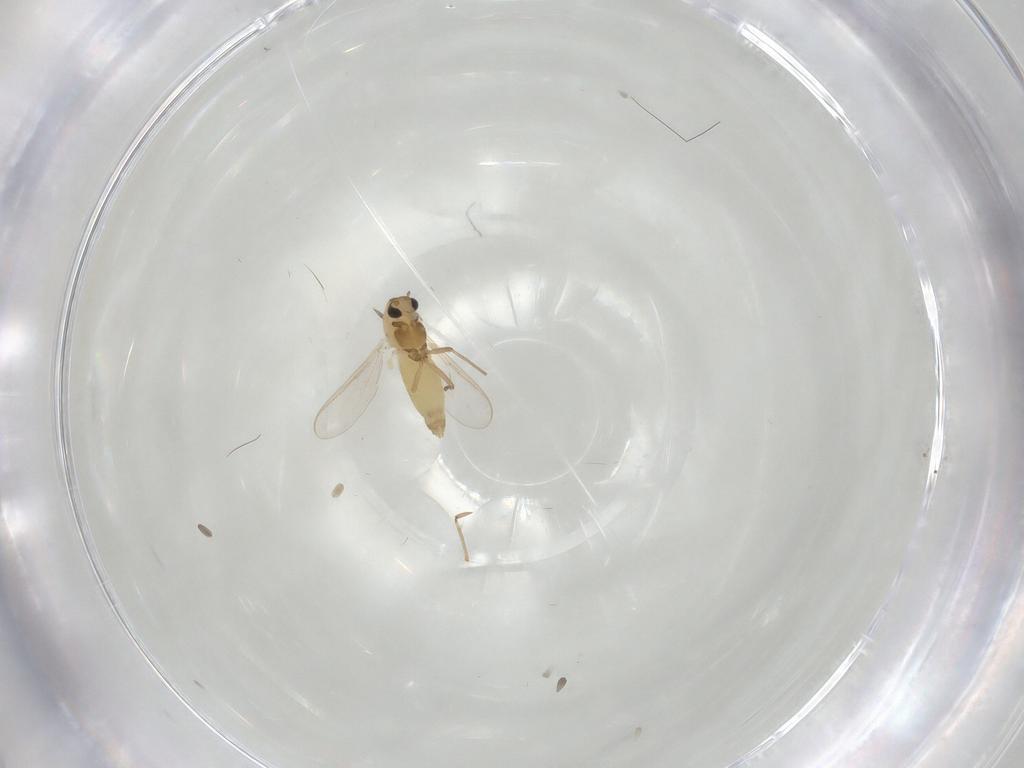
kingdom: Animalia
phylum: Arthropoda
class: Insecta
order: Diptera
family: Chironomidae
